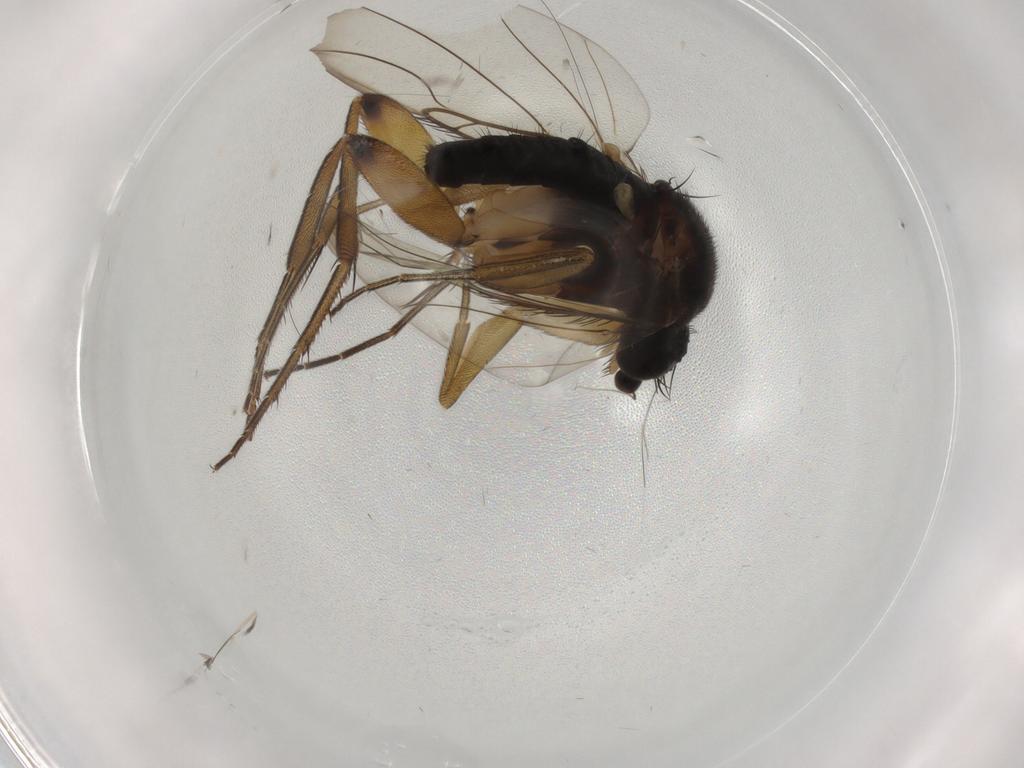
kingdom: Animalia
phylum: Arthropoda
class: Insecta
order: Diptera
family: Phoridae
